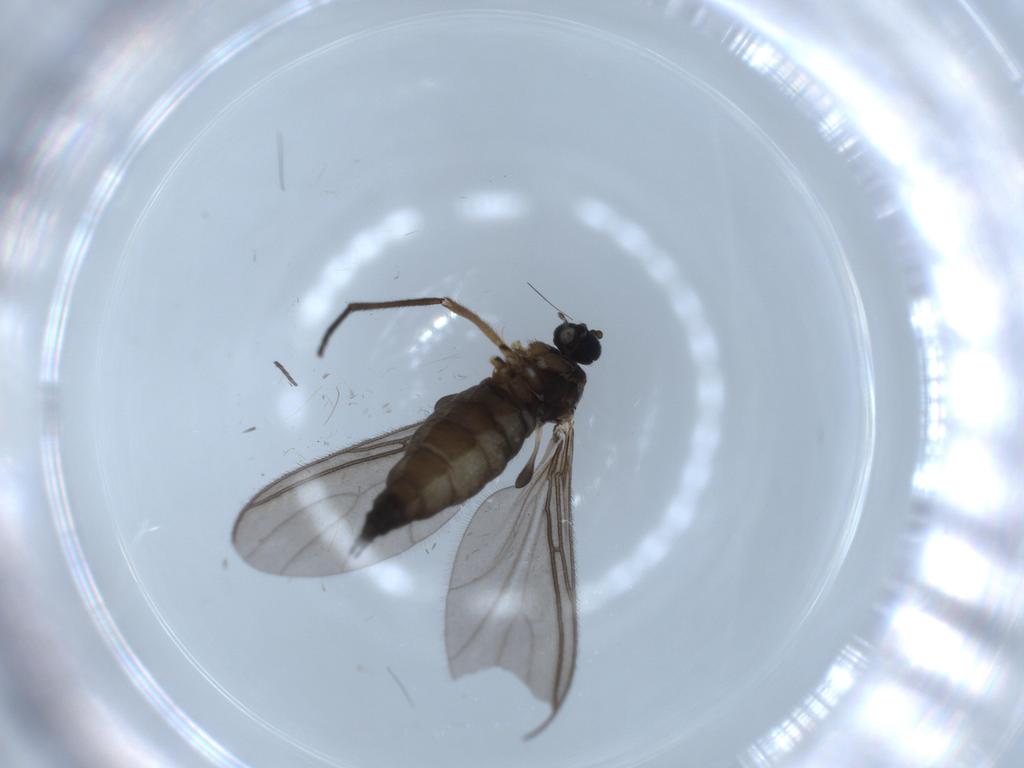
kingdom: Animalia
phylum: Arthropoda
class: Insecta
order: Diptera
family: Sciaridae
